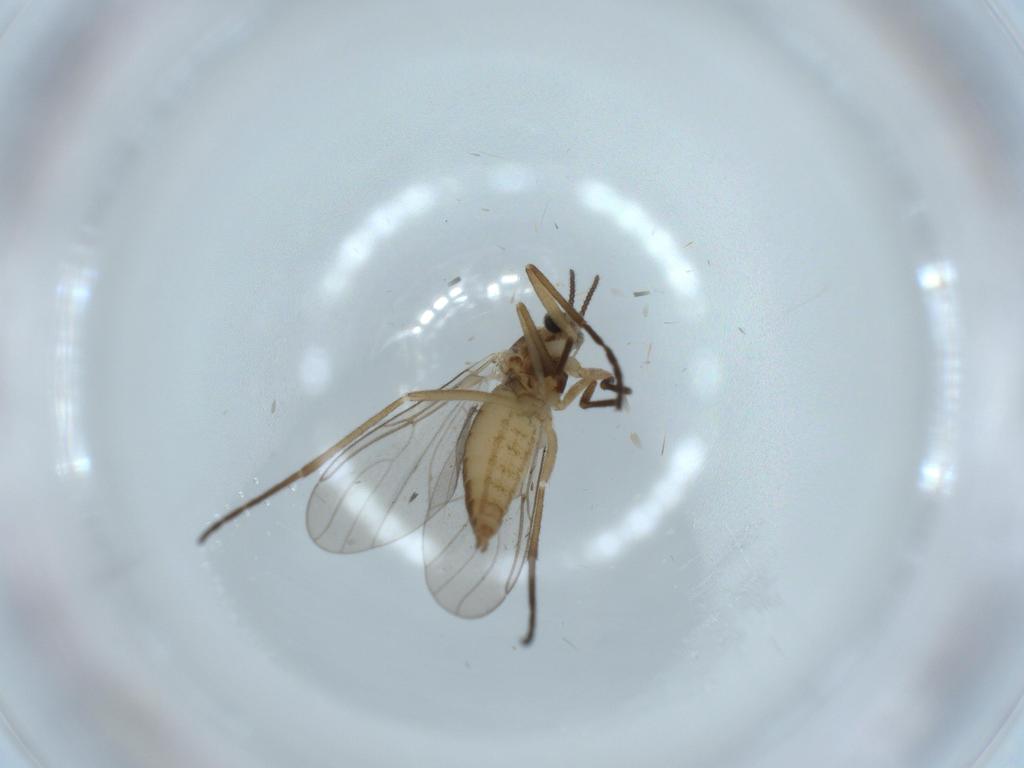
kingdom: Animalia
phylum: Arthropoda
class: Insecta
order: Diptera
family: Cecidomyiidae
